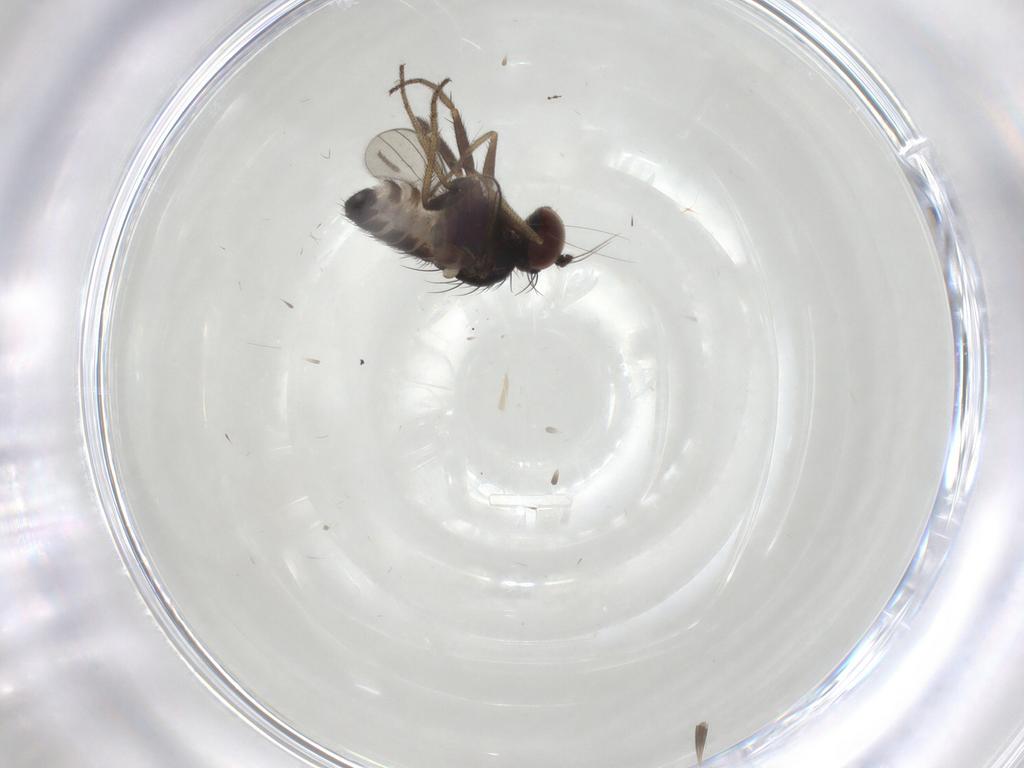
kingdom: Animalia
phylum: Arthropoda
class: Insecta
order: Diptera
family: Dolichopodidae
